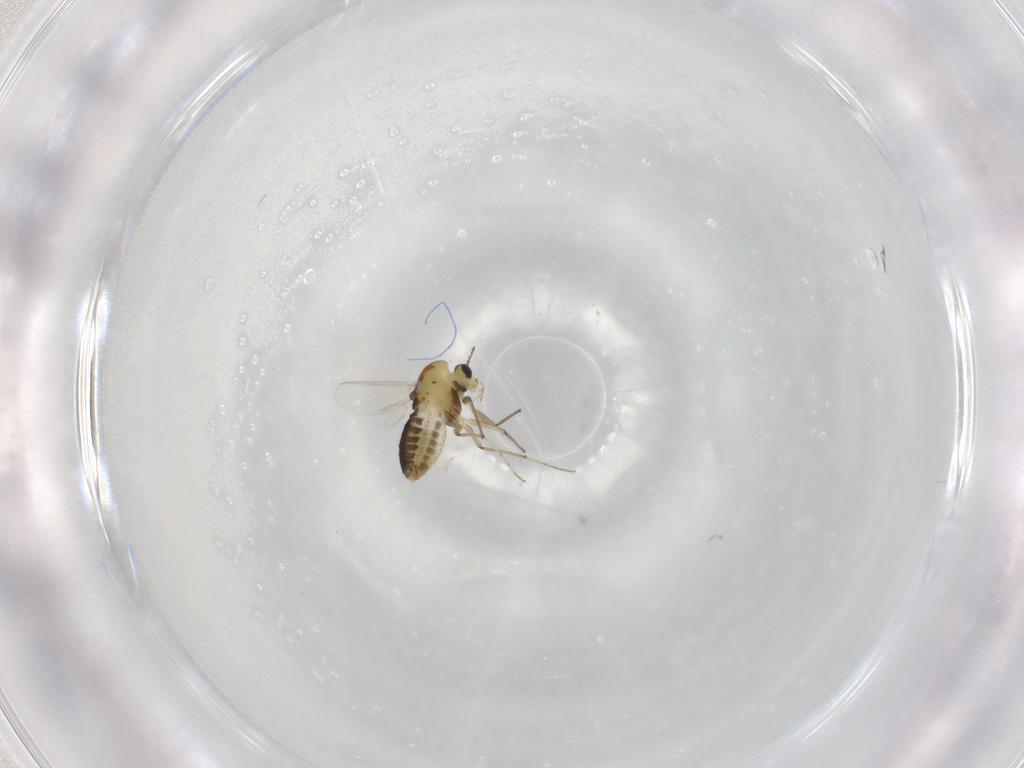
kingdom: Animalia
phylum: Arthropoda
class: Insecta
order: Diptera
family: Chironomidae
